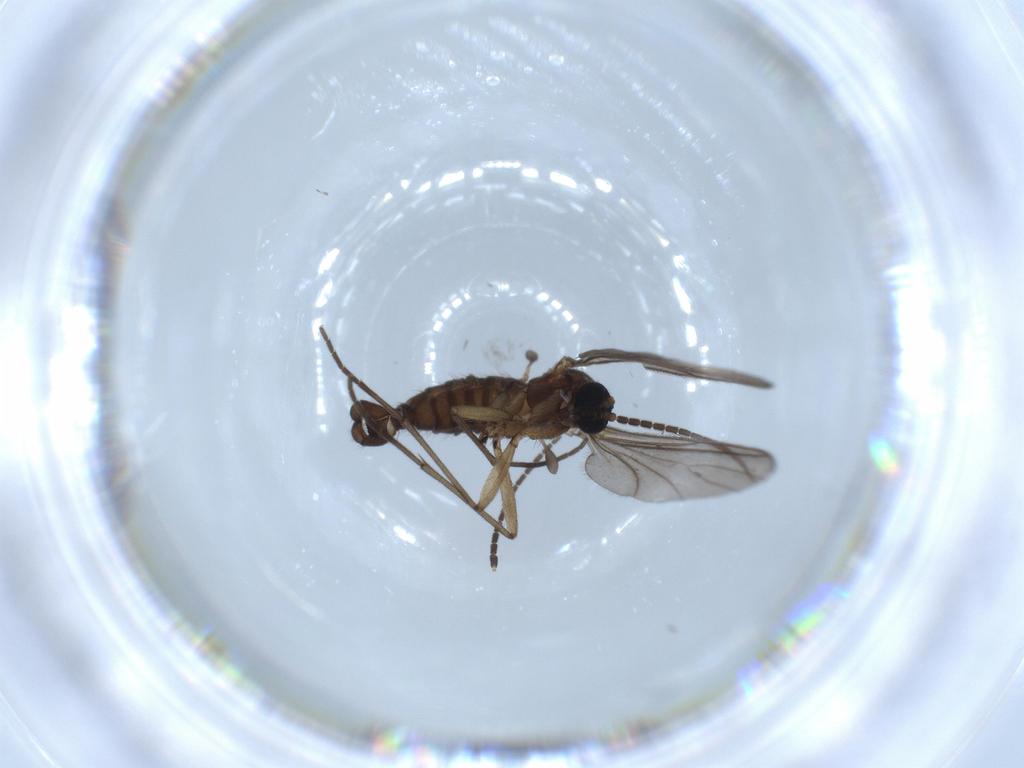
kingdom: Animalia
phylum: Arthropoda
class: Insecta
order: Diptera
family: Sciaridae
